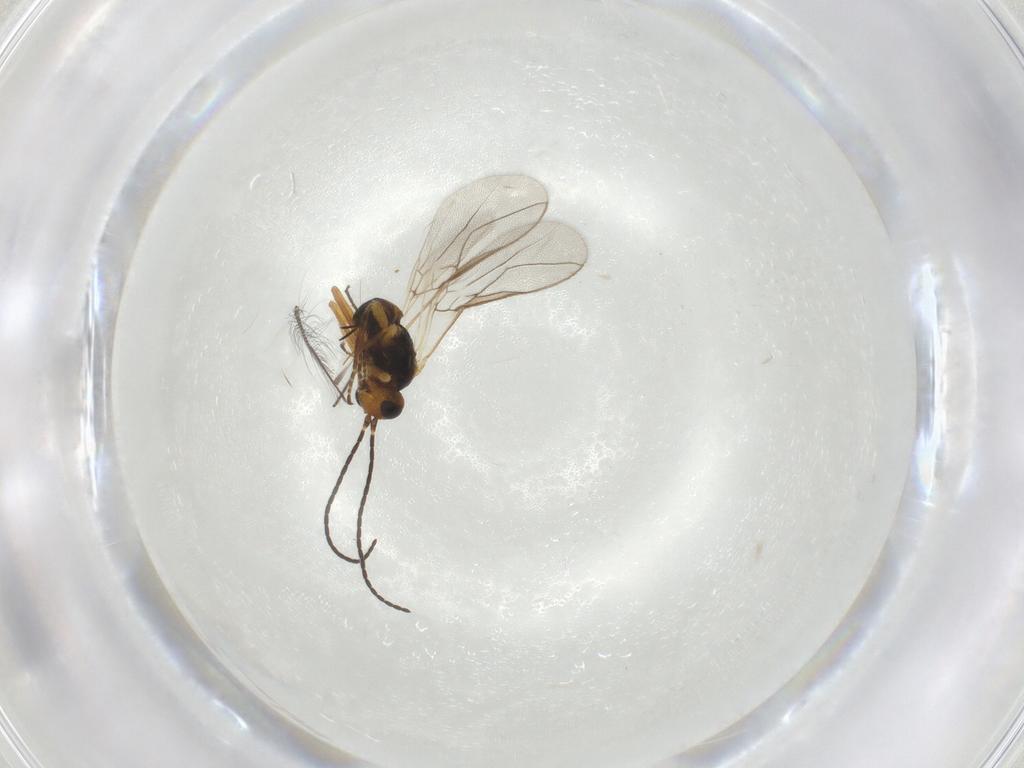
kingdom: Animalia
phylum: Arthropoda
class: Insecta
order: Hymenoptera
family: Braconidae
